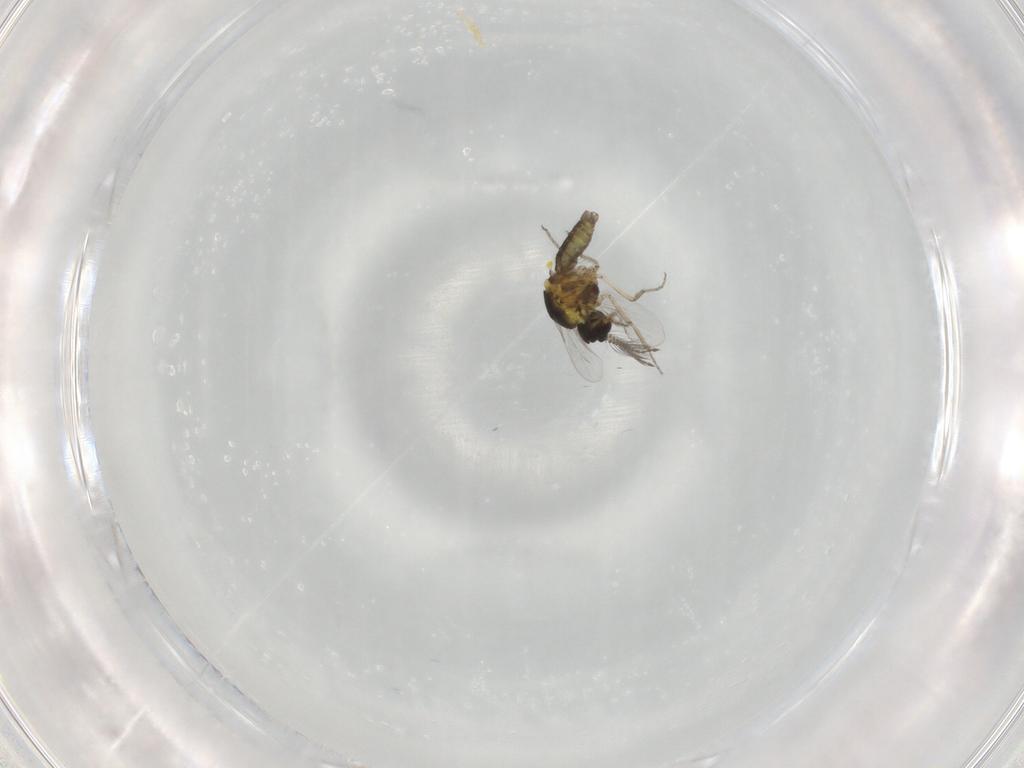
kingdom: Animalia
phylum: Arthropoda
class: Insecta
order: Diptera
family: Ceratopogonidae
